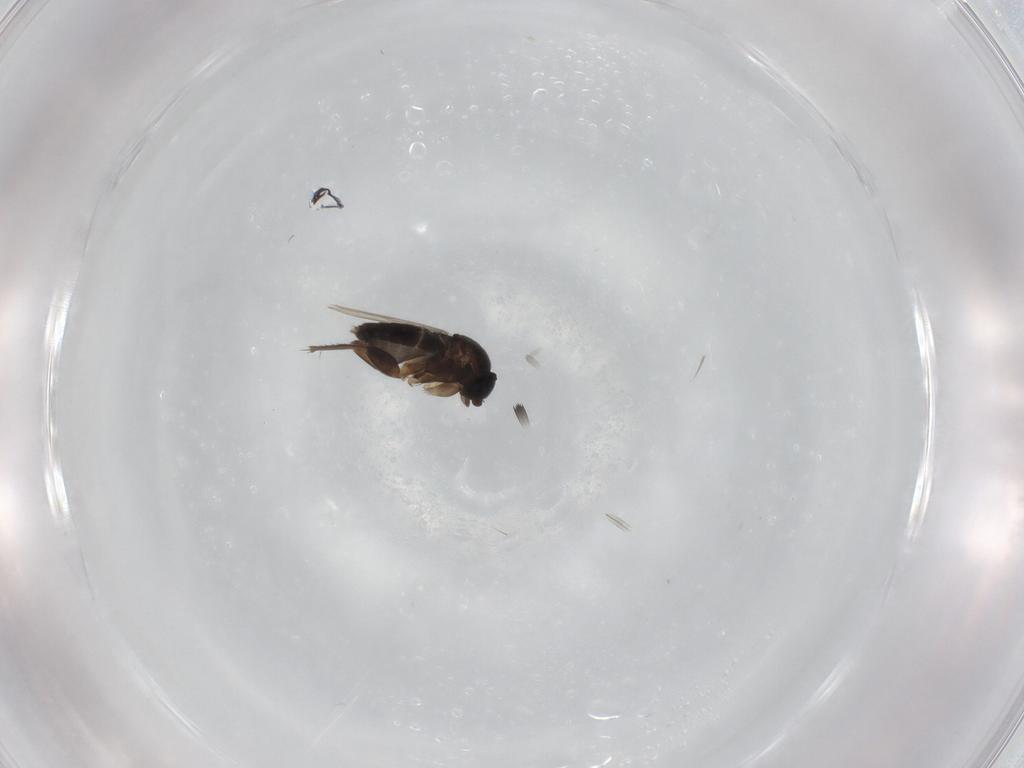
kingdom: Animalia
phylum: Arthropoda
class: Insecta
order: Diptera
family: Phoridae
